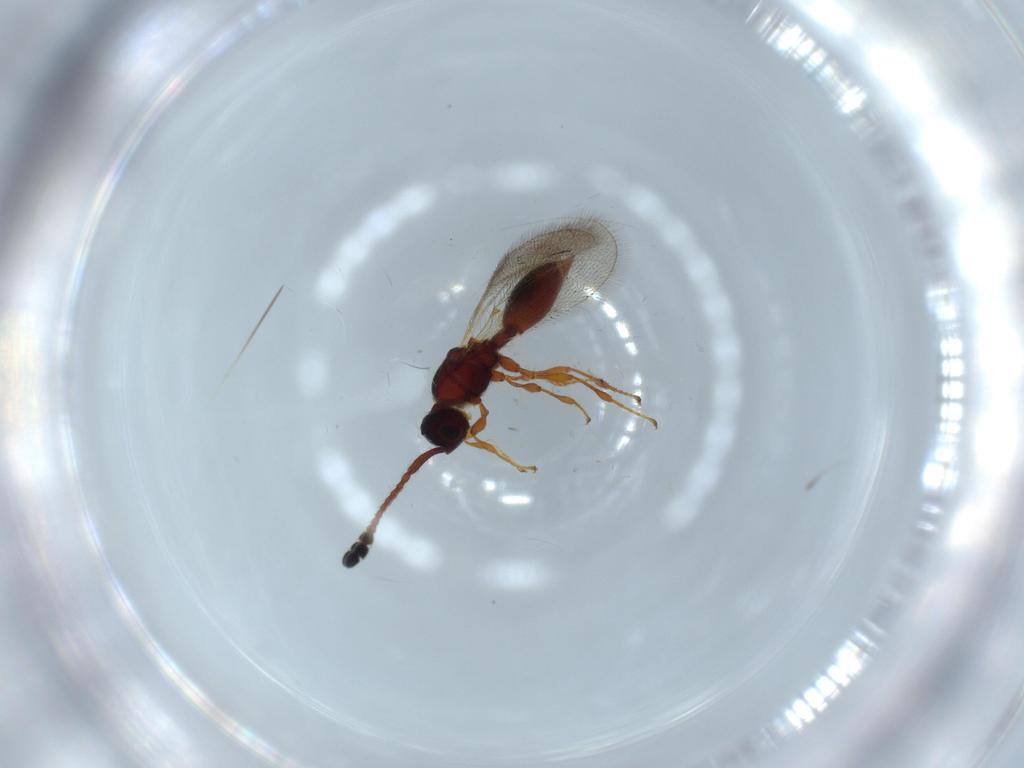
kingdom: Animalia
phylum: Arthropoda
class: Insecta
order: Hymenoptera
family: Diapriidae
